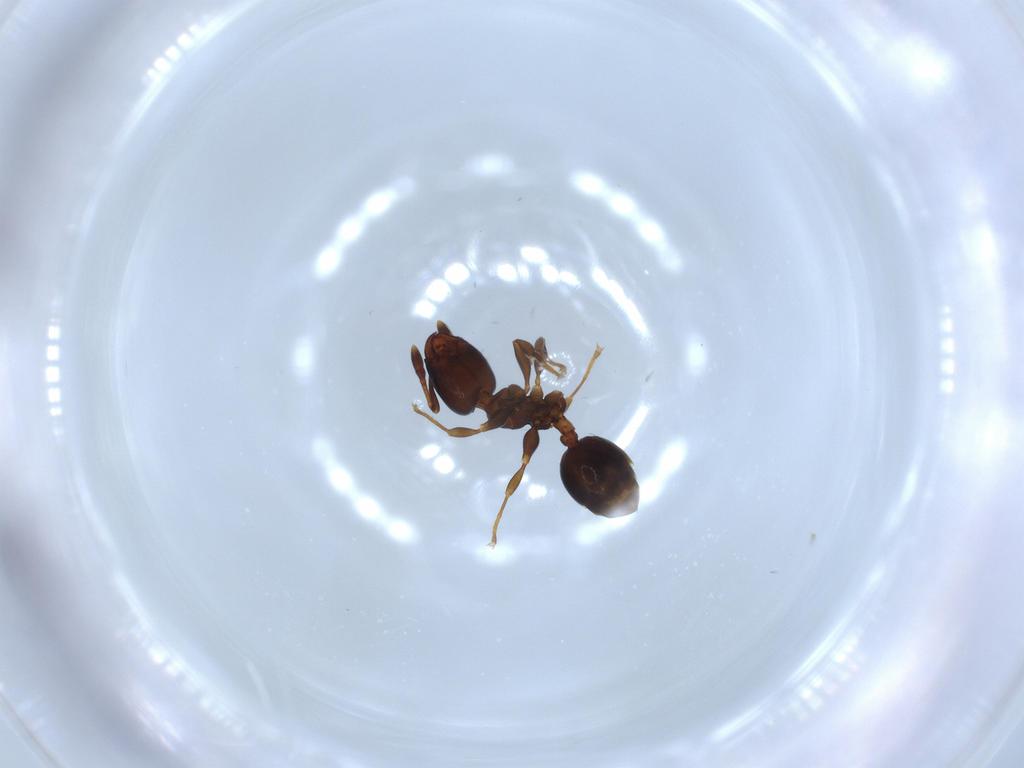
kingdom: Animalia
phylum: Arthropoda
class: Insecta
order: Hymenoptera
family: Formicidae
